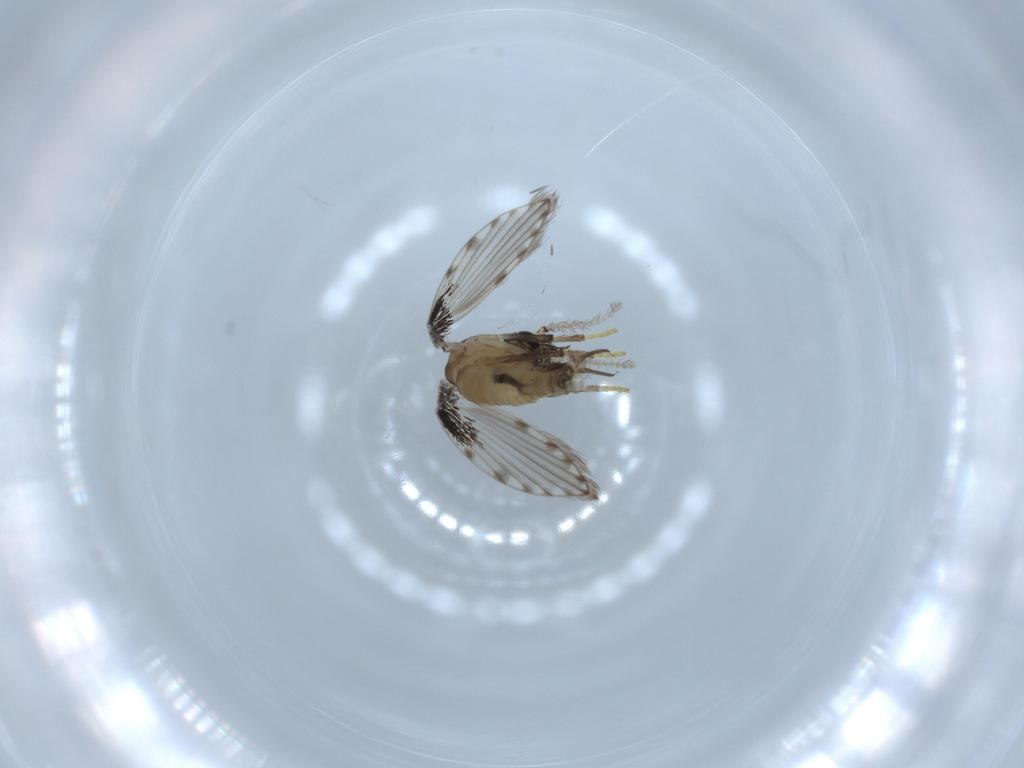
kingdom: Animalia
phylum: Arthropoda
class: Insecta
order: Diptera
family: Sciaridae
